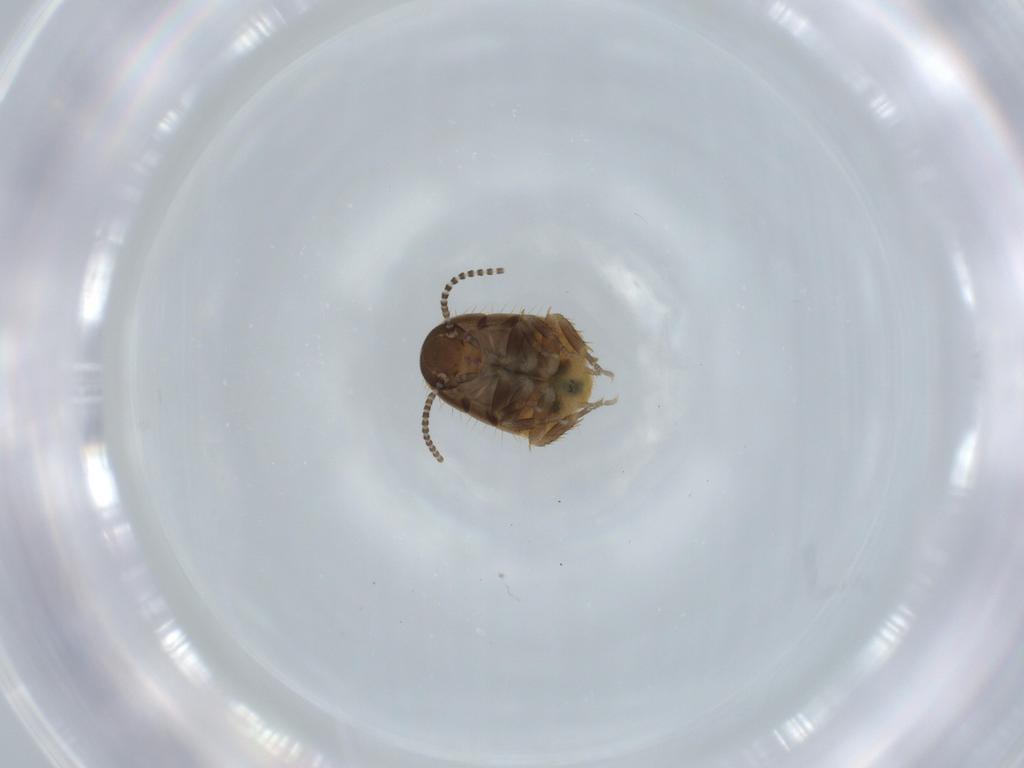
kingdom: Animalia
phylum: Arthropoda
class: Insecta
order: Blattodea
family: Blaberidae
